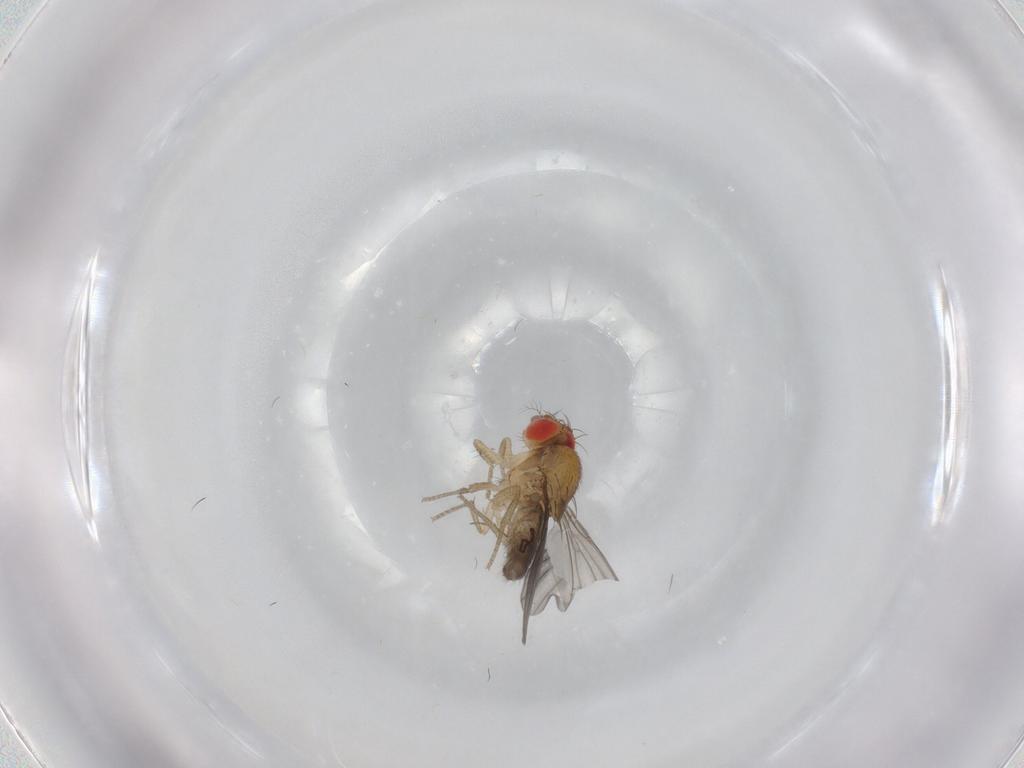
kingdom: Animalia
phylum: Arthropoda
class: Insecta
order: Diptera
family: Drosophilidae
